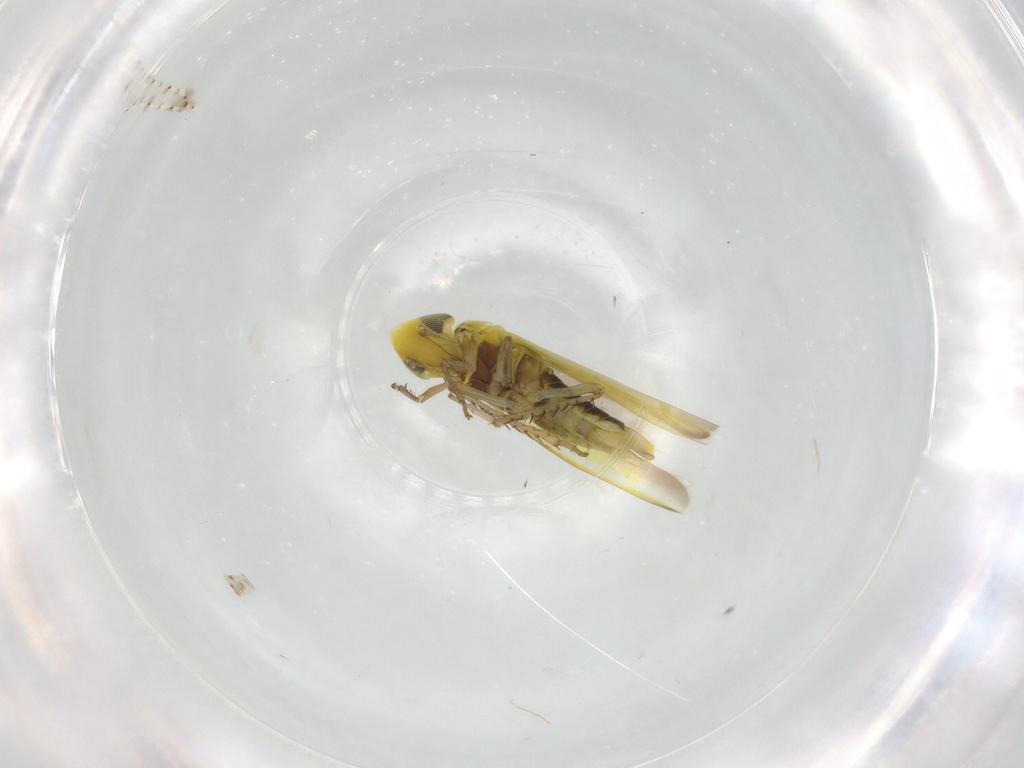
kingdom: Animalia
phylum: Arthropoda
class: Insecta
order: Hemiptera
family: Cicadellidae
